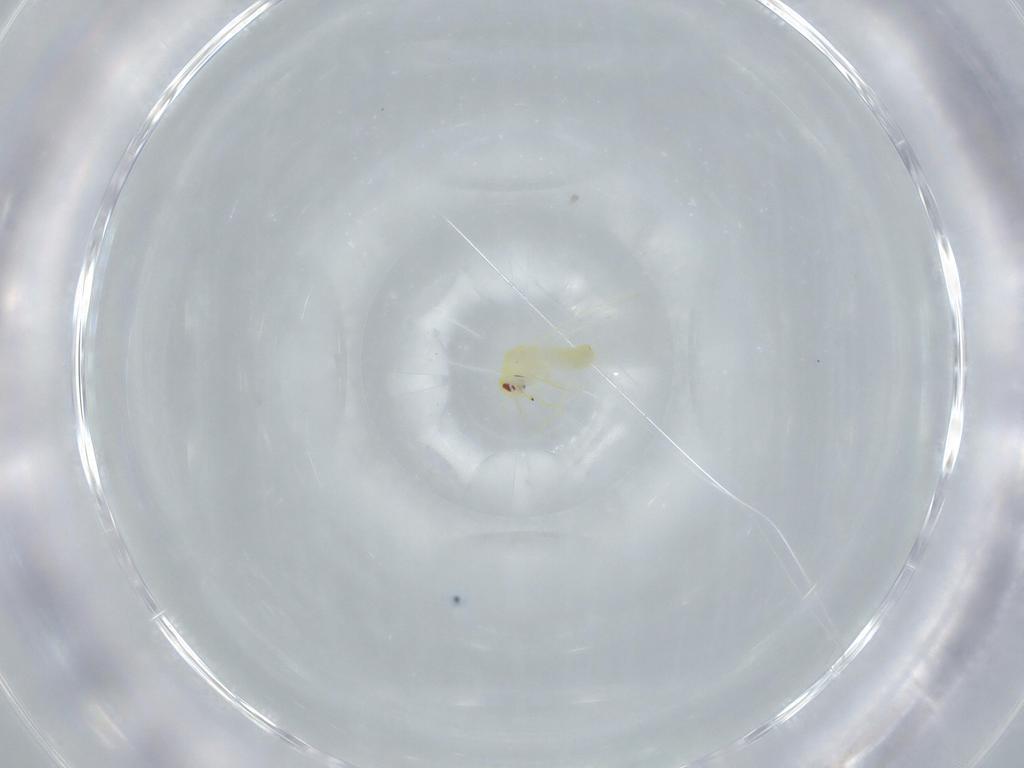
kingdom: Animalia
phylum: Arthropoda
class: Insecta
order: Hemiptera
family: Aleyrodidae
